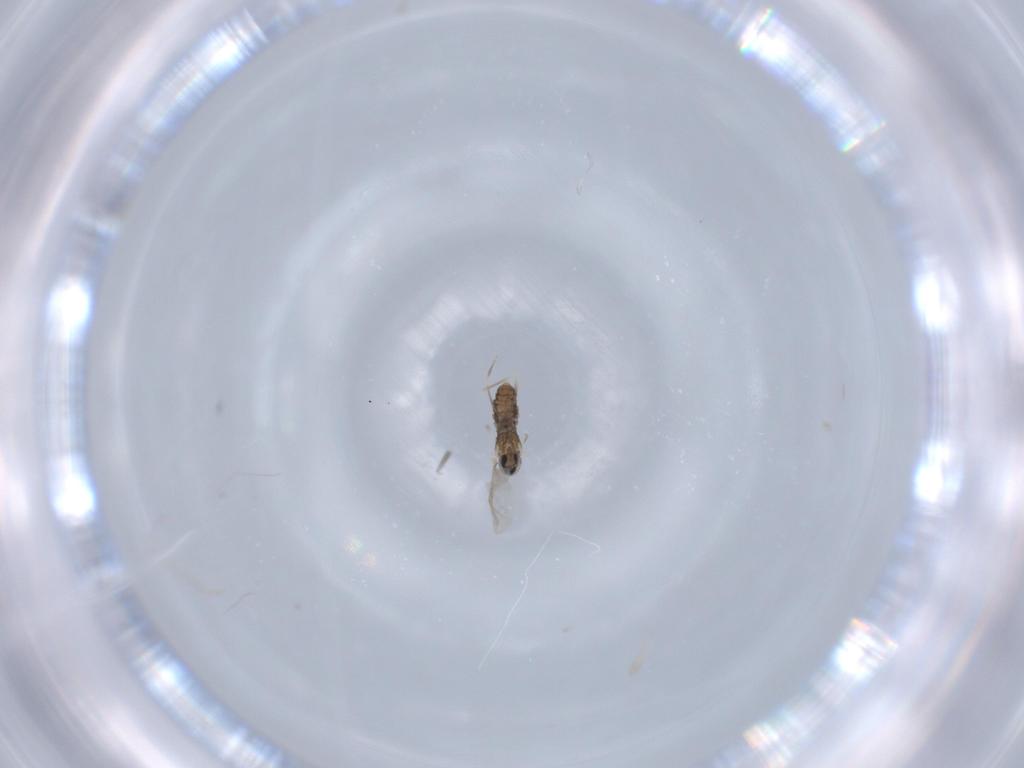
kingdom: Animalia
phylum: Arthropoda
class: Insecta
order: Diptera
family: Cecidomyiidae
